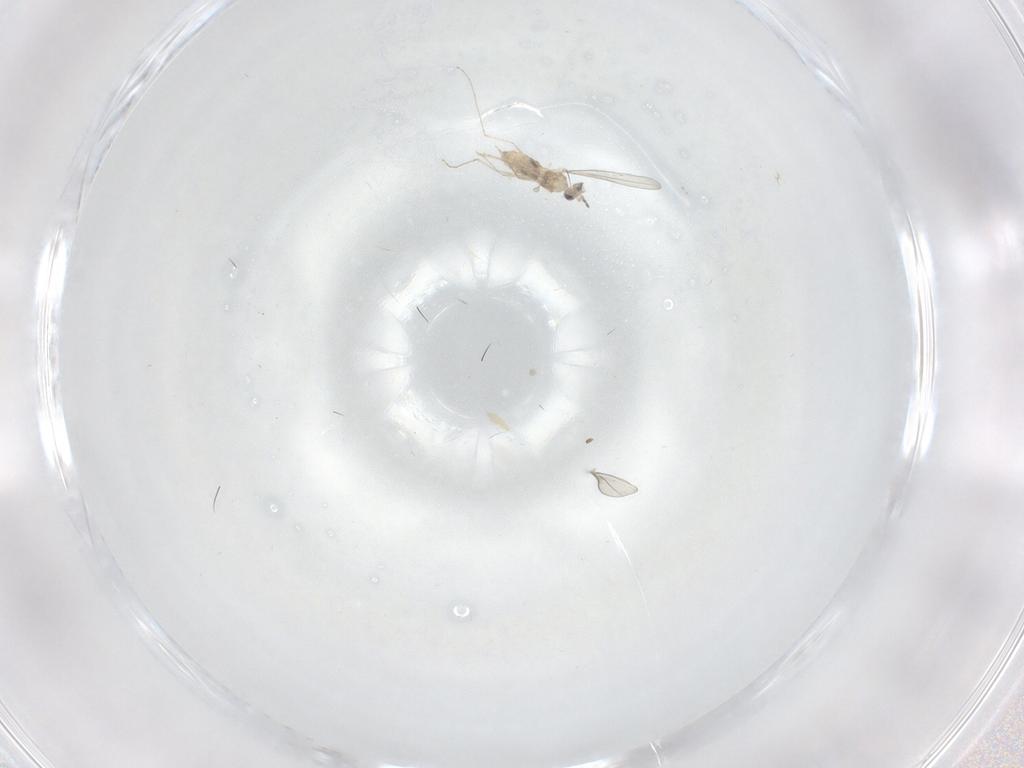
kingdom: Animalia
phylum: Arthropoda
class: Insecta
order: Diptera
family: Cecidomyiidae
